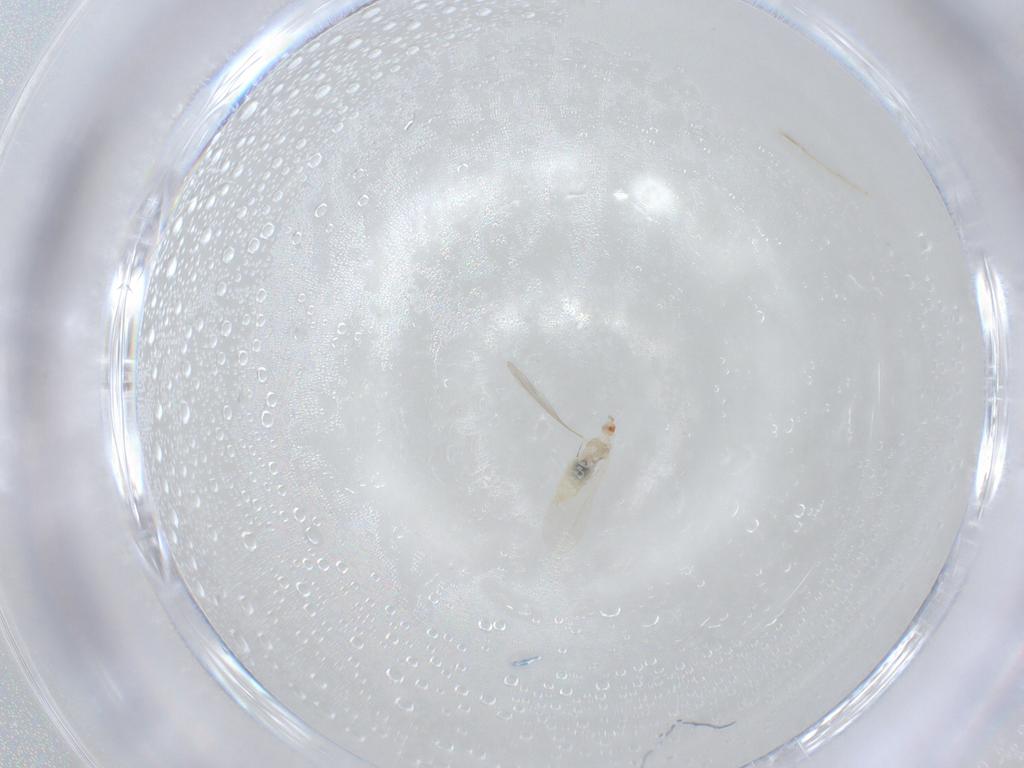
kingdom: Animalia
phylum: Arthropoda
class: Insecta
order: Diptera
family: Cecidomyiidae
